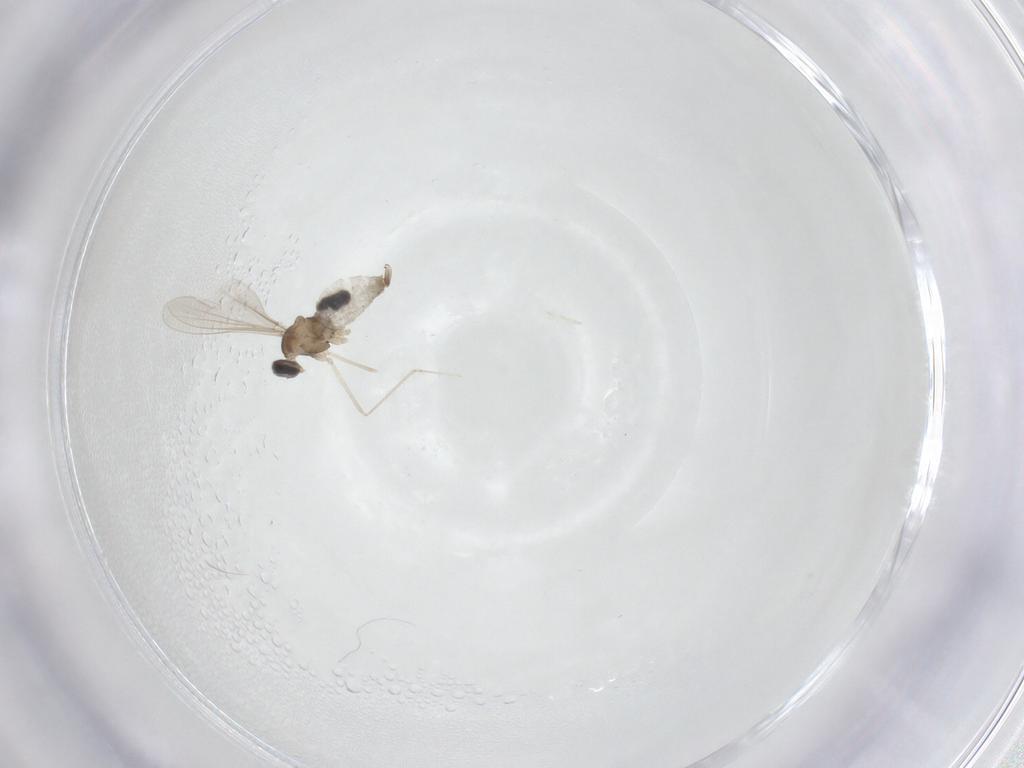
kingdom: Animalia
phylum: Arthropoda
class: Insecta
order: Diptera
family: Cecidomyiidae
